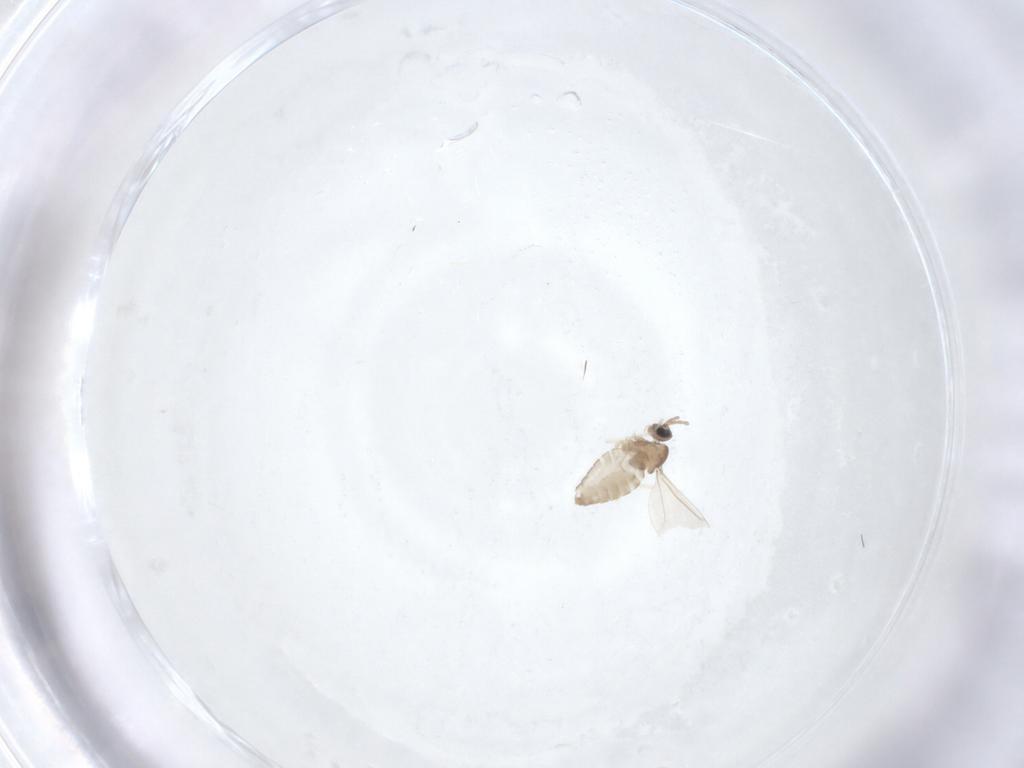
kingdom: Animalia
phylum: Arthropoda
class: Insecta
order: Diptera
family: Cecidomyiidae
